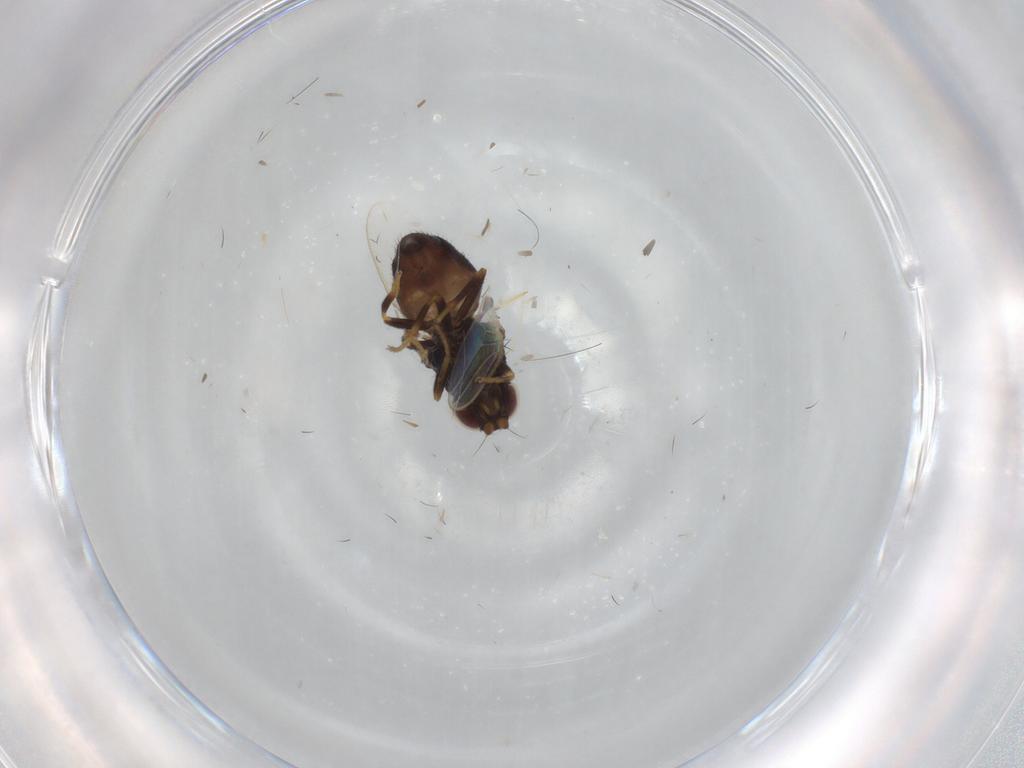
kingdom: Animalia
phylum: Arthropoda
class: Insecta
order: Diptera
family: Chloropidae
